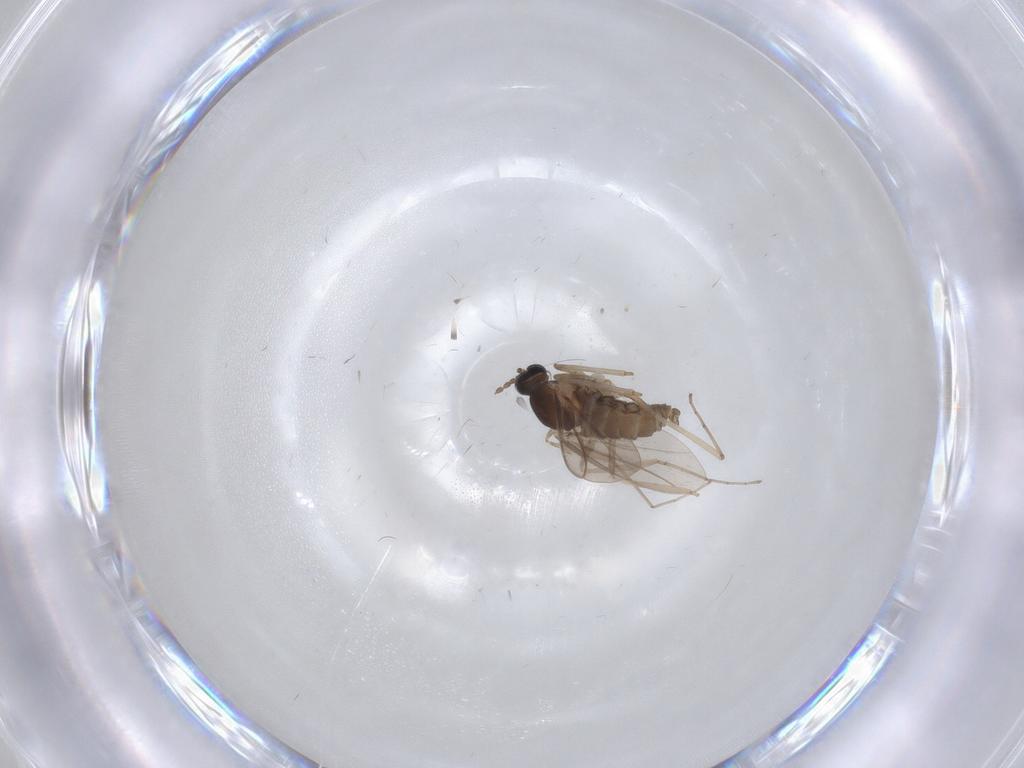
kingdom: Animalia
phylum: Arthropoda
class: Insecta
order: Diptera
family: Cecidomyiidae
